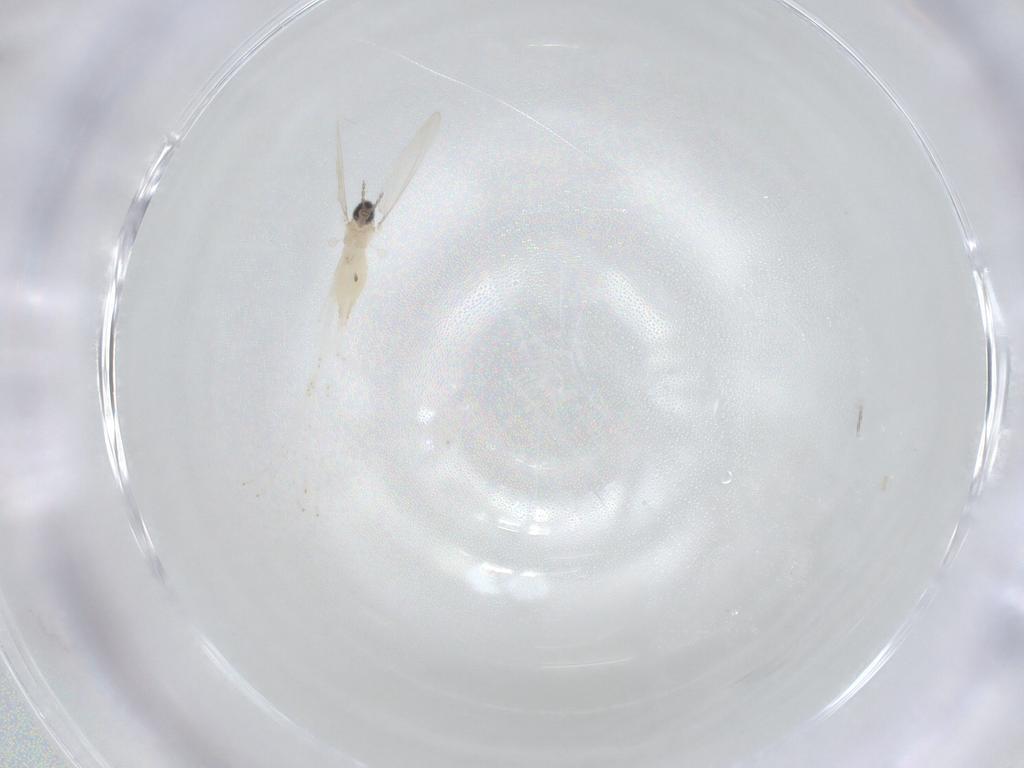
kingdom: Animalia
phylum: Arthropoda
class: Insecta
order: Diptera
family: Cecidomyiidae
